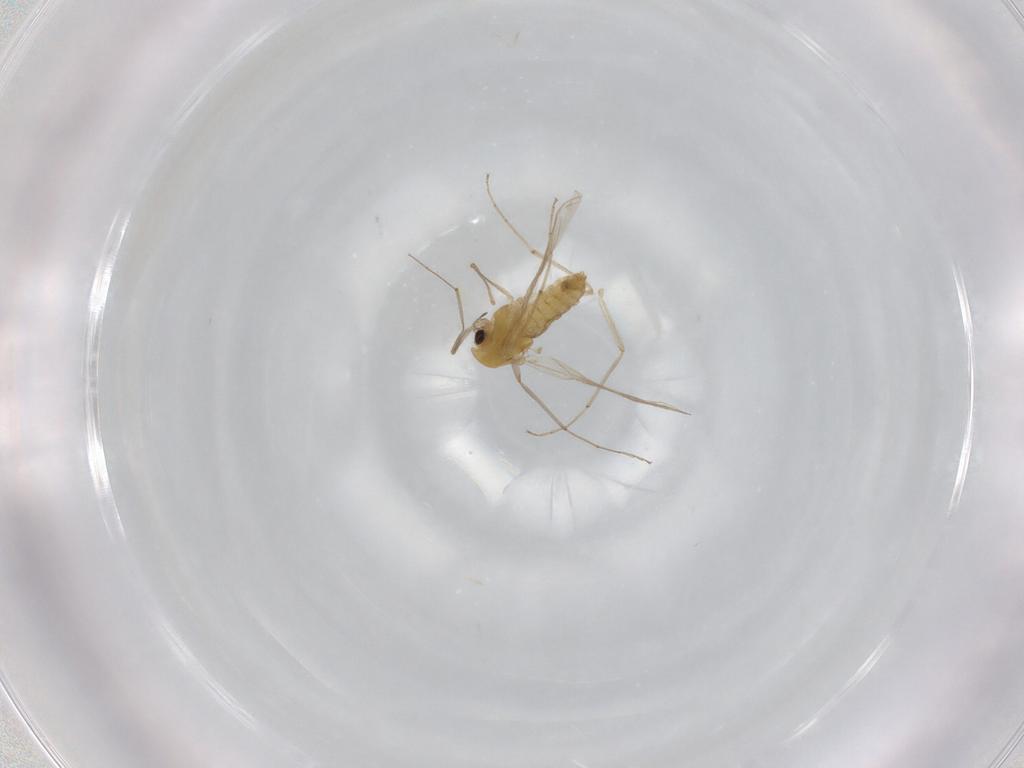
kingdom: Animalia
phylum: Arthropoda
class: Insecta
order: Diptera
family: Chironomidae
